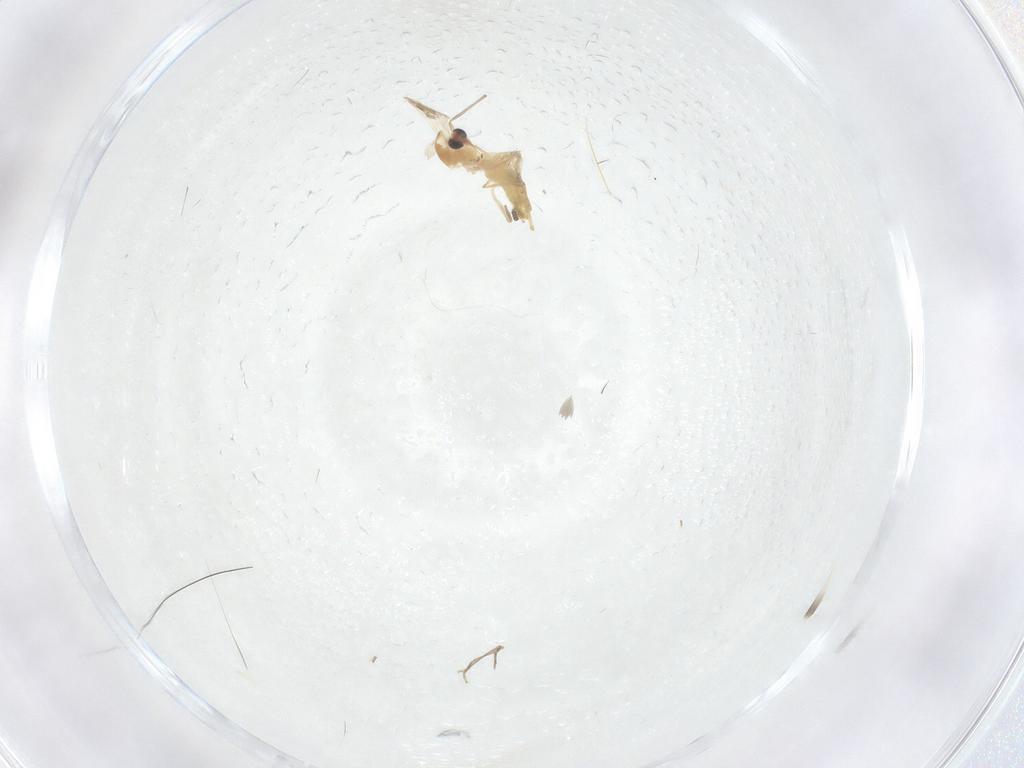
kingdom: Animalia
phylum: Arthropoda
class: Insecta
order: Diptera
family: Chironomidae
